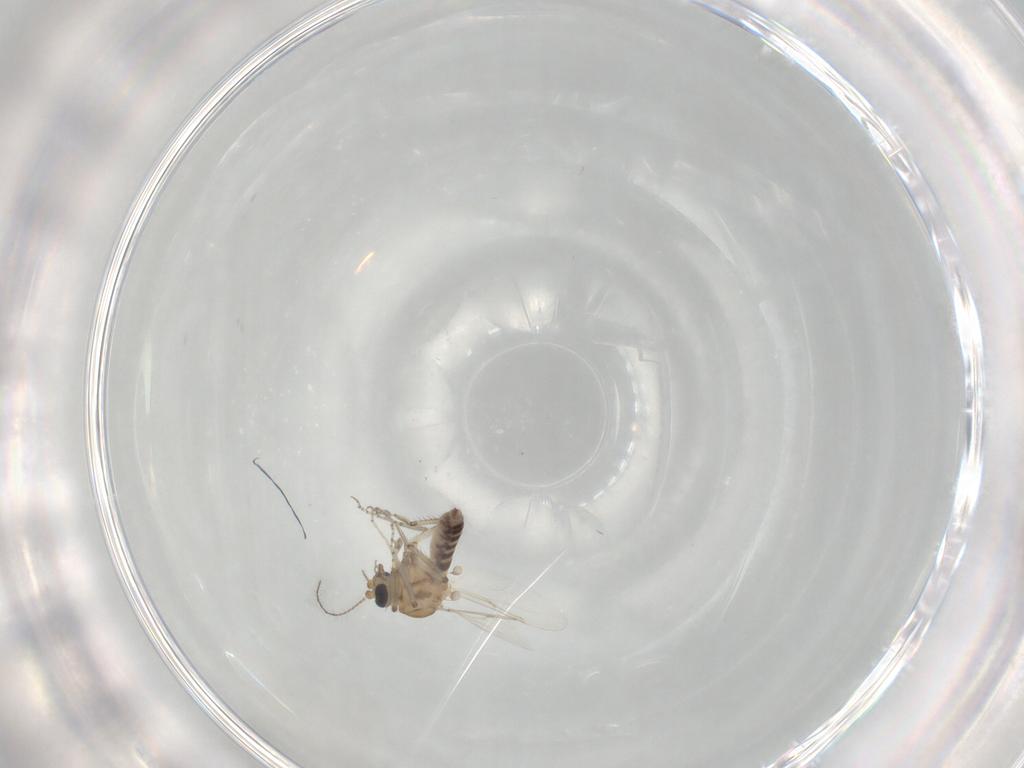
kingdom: Animalia
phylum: Arthropoda
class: Insecta
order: Diptera
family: Ceratopogonidae
